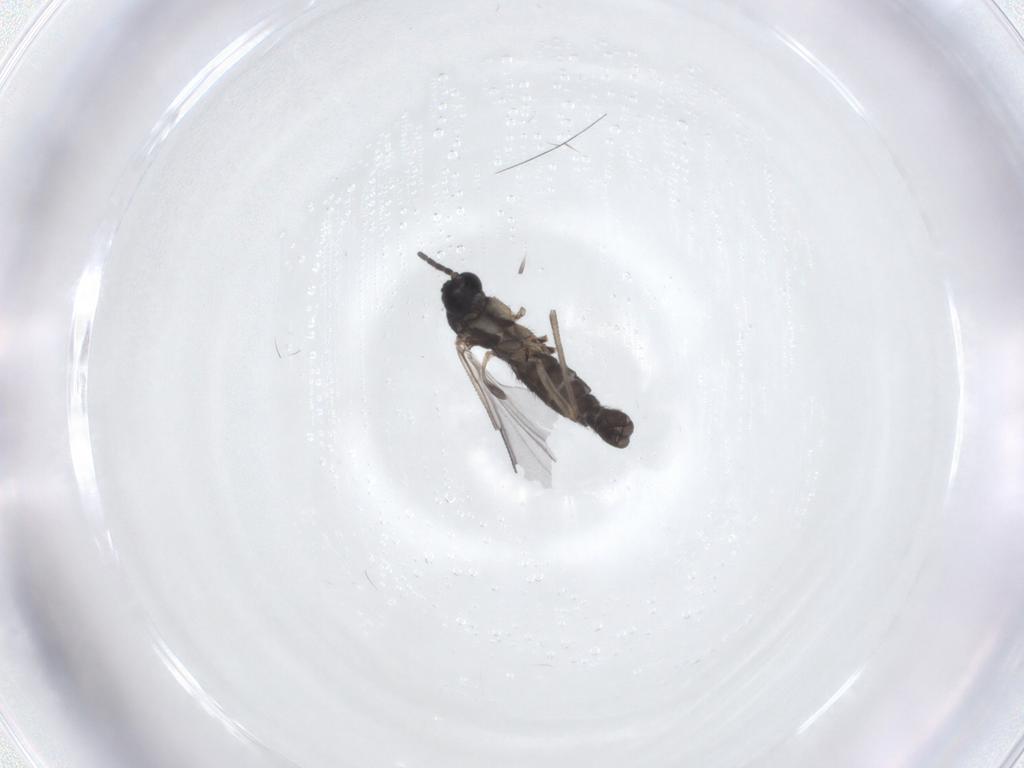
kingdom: Animalia
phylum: Arthropoda
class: Insecta
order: Diptera
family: Sciaridae
